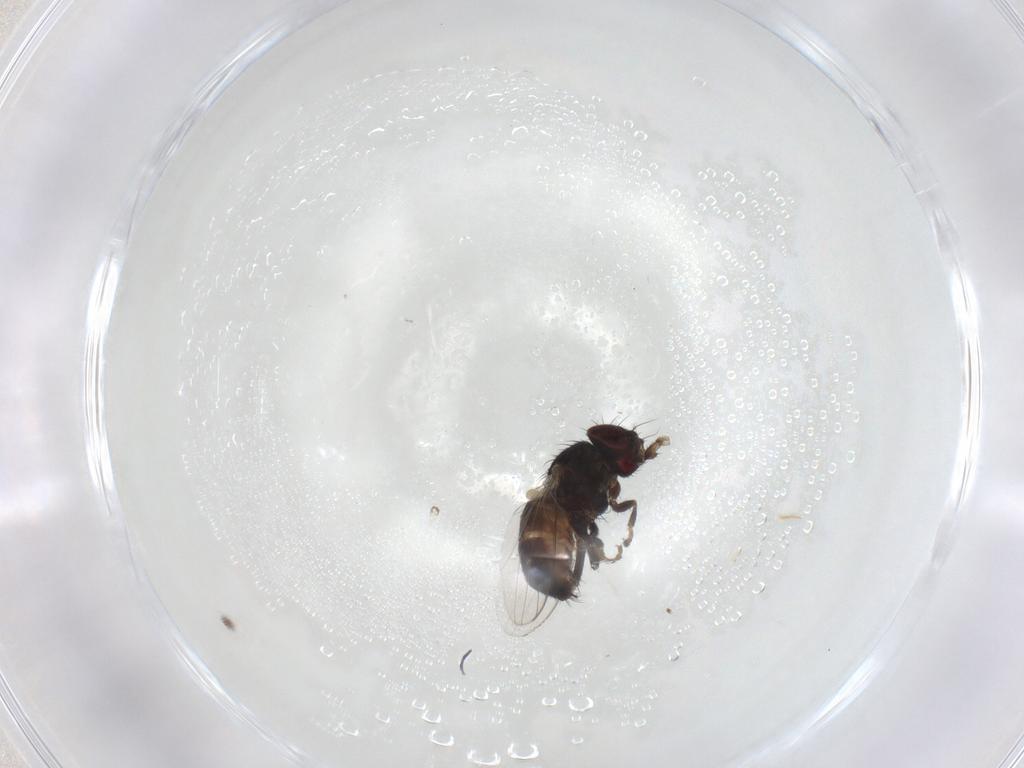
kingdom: Animalia
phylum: Arthropoda
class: Insecta
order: Diptera
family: Milichiidae
